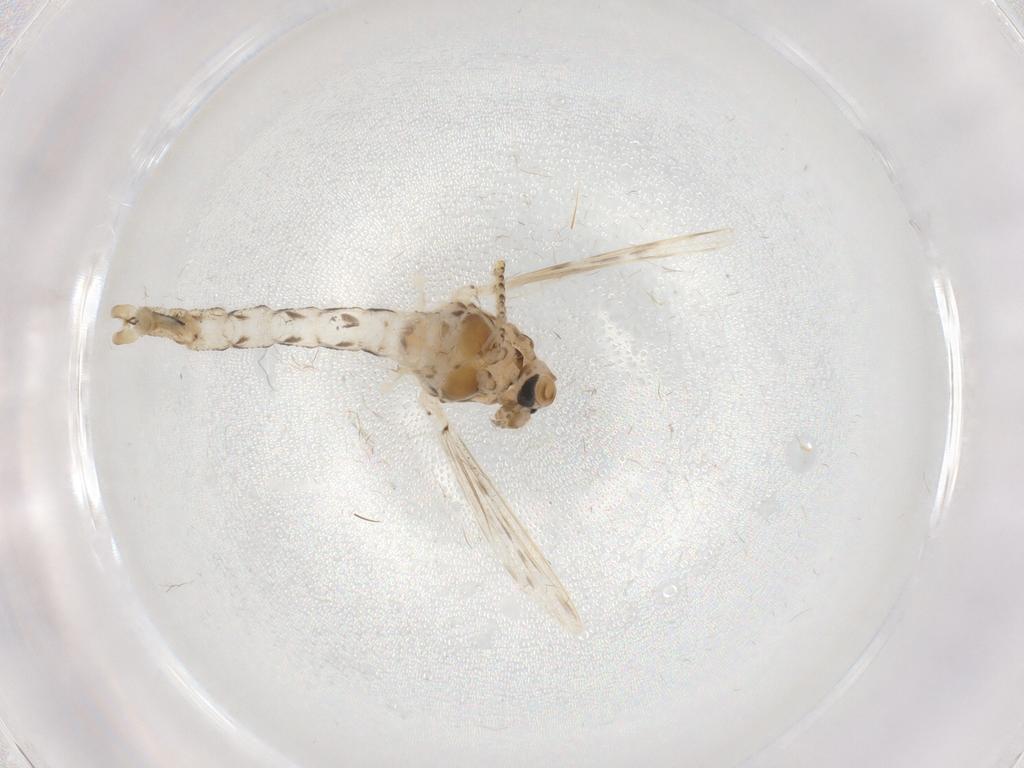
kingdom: Animalia
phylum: Arthropoda
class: Insecta
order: Diptera
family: Chaoboridae
